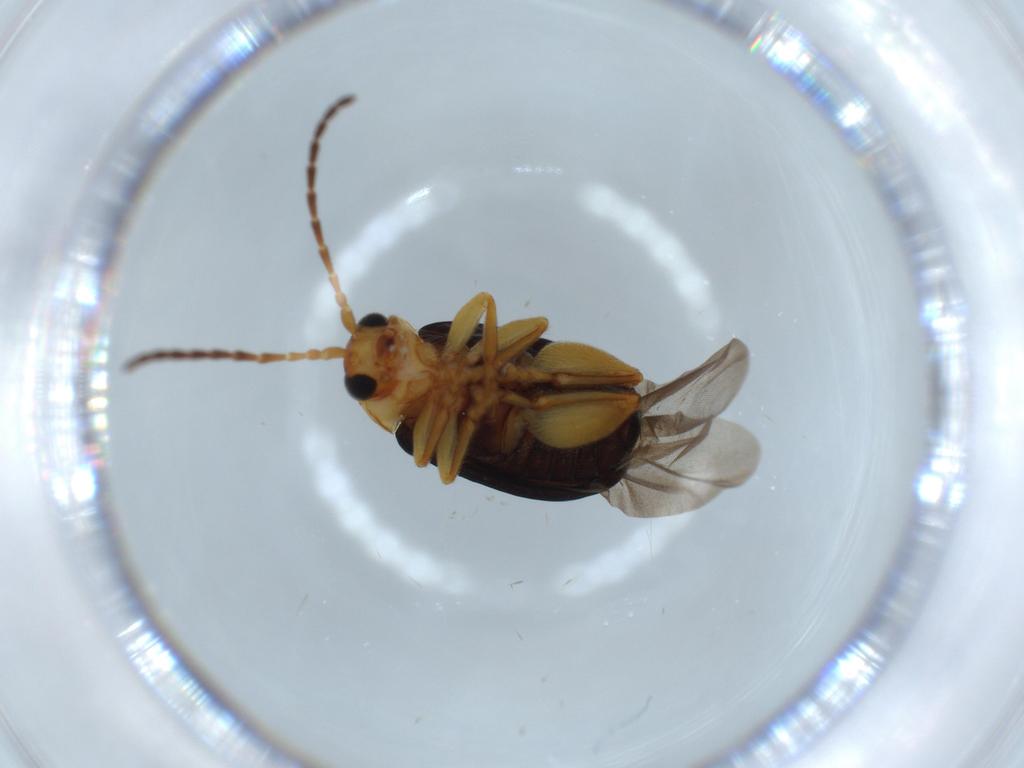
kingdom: Animalia
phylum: Arthropoda
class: Insecta
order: Coleoptera
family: Chrysomelidae
